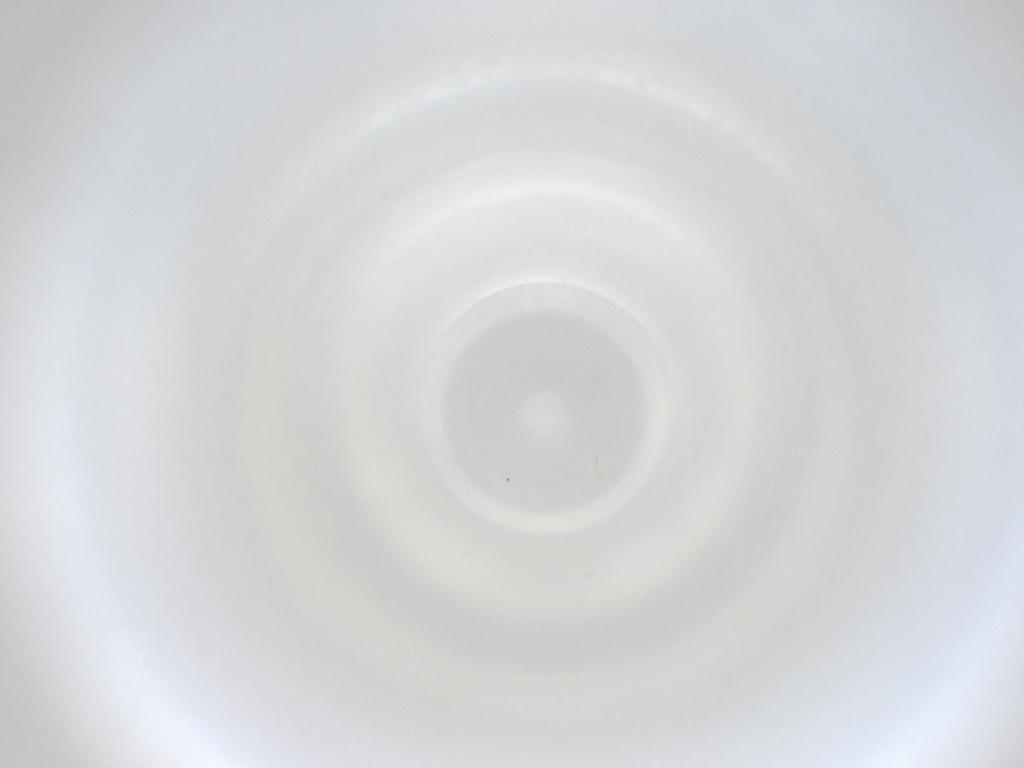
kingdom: Animalia
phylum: Arthropoda
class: Insecta
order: Diptera
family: Cecidomyiidae
